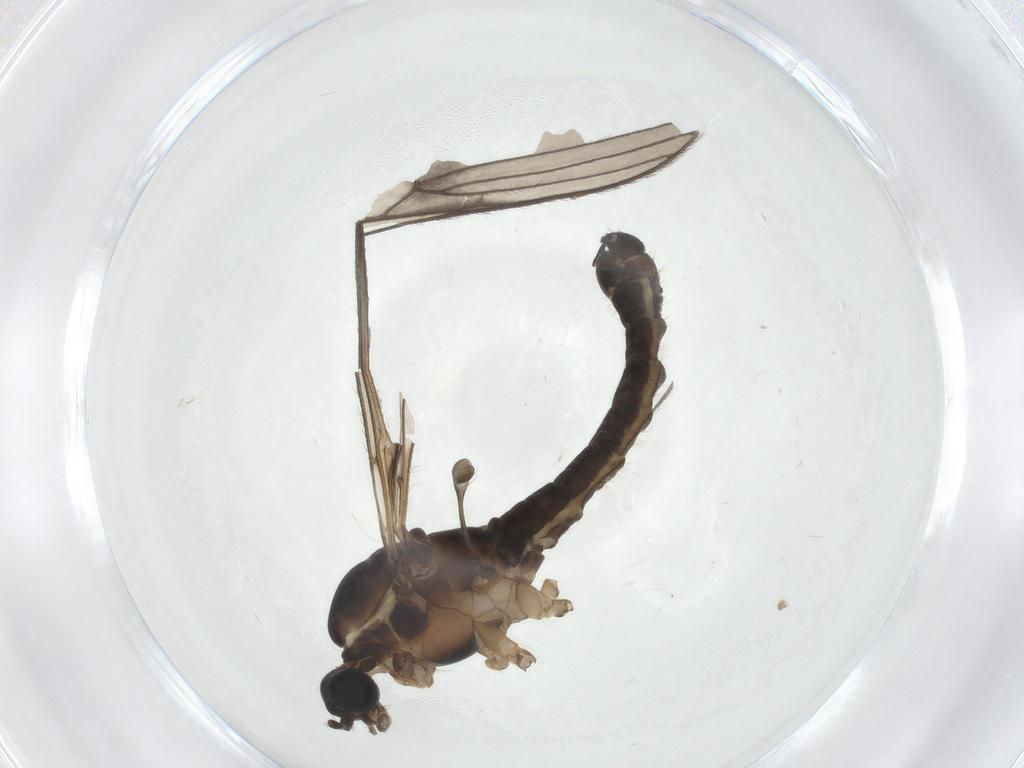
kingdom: Animalia
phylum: Arthropoda
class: Insecta
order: Diptera
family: Limoniidae
